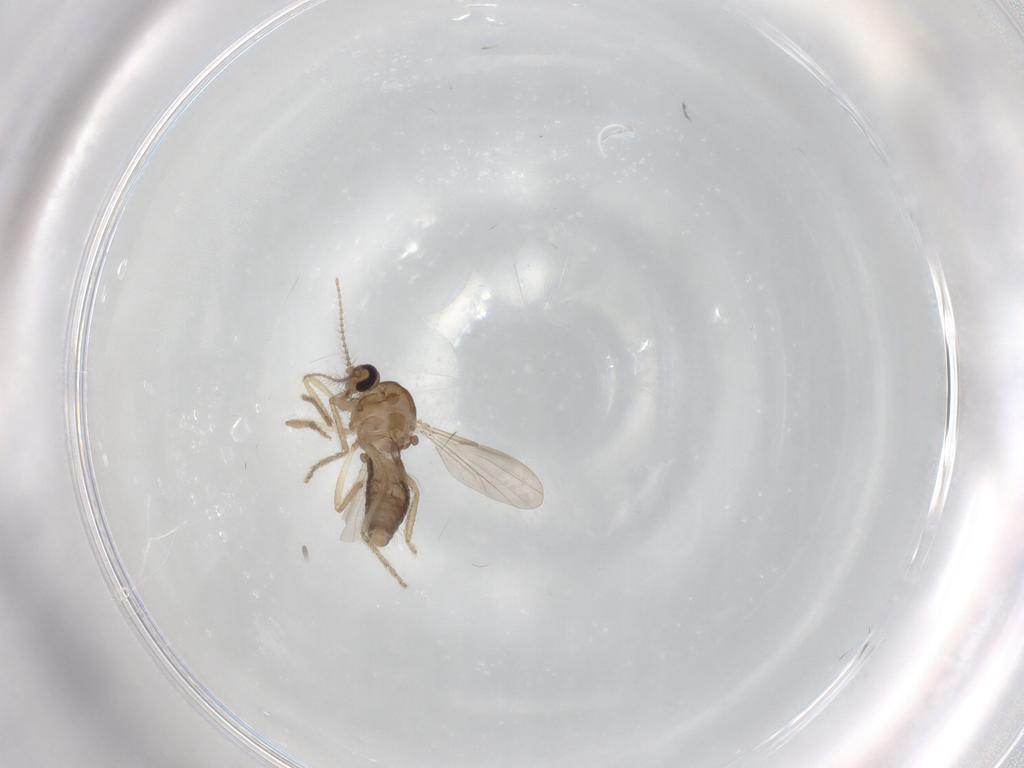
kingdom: Animalia
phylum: Arthropoda
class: Insecta
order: Diptera
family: Ceratopogonidae
